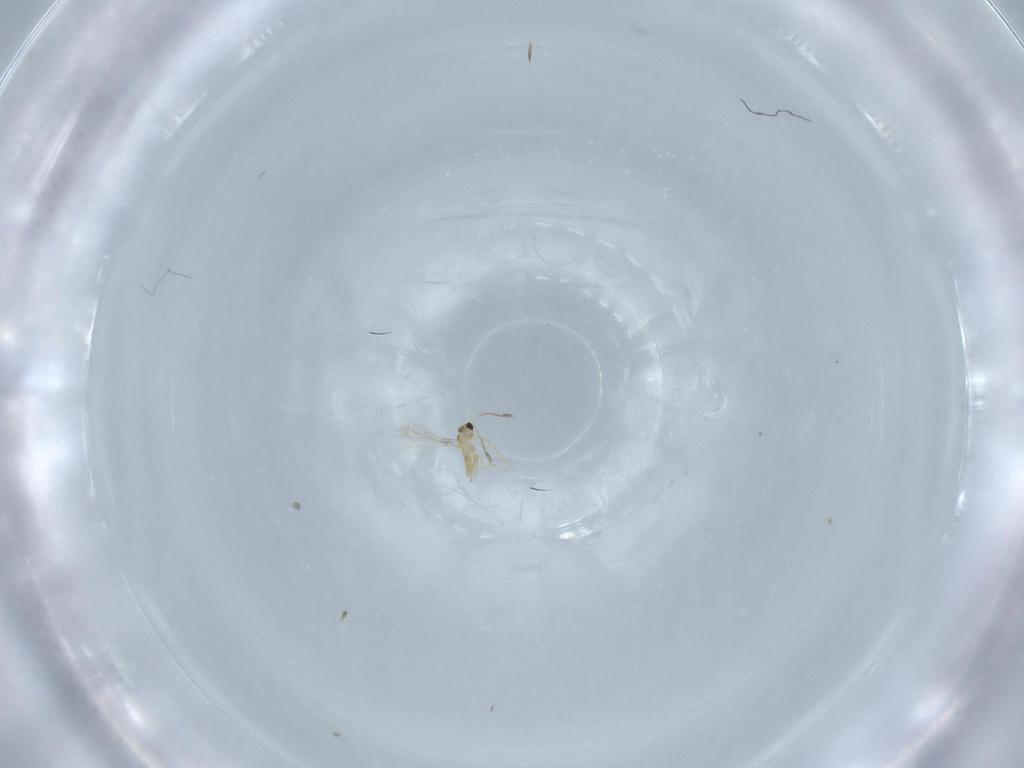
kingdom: Animalia
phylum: Arthropoda
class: Insecta
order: Hymenoptera
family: Mymaridae
